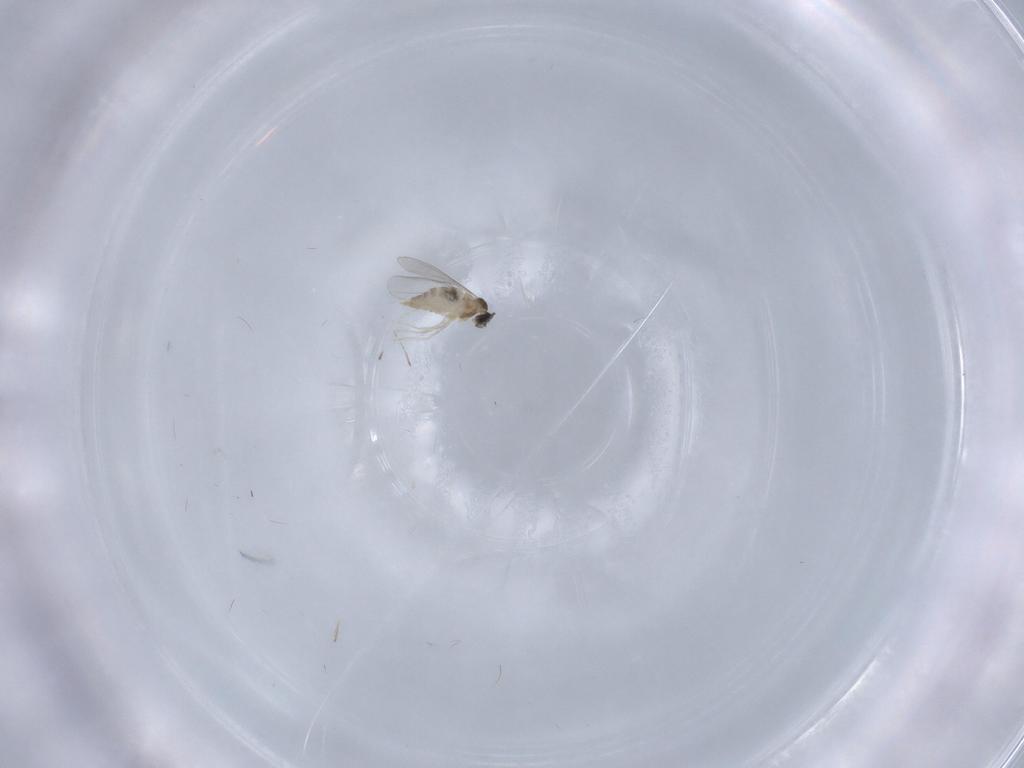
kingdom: Animalia
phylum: Arthropoda
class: Insecta
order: Diptera
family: Cecidomyiidae
